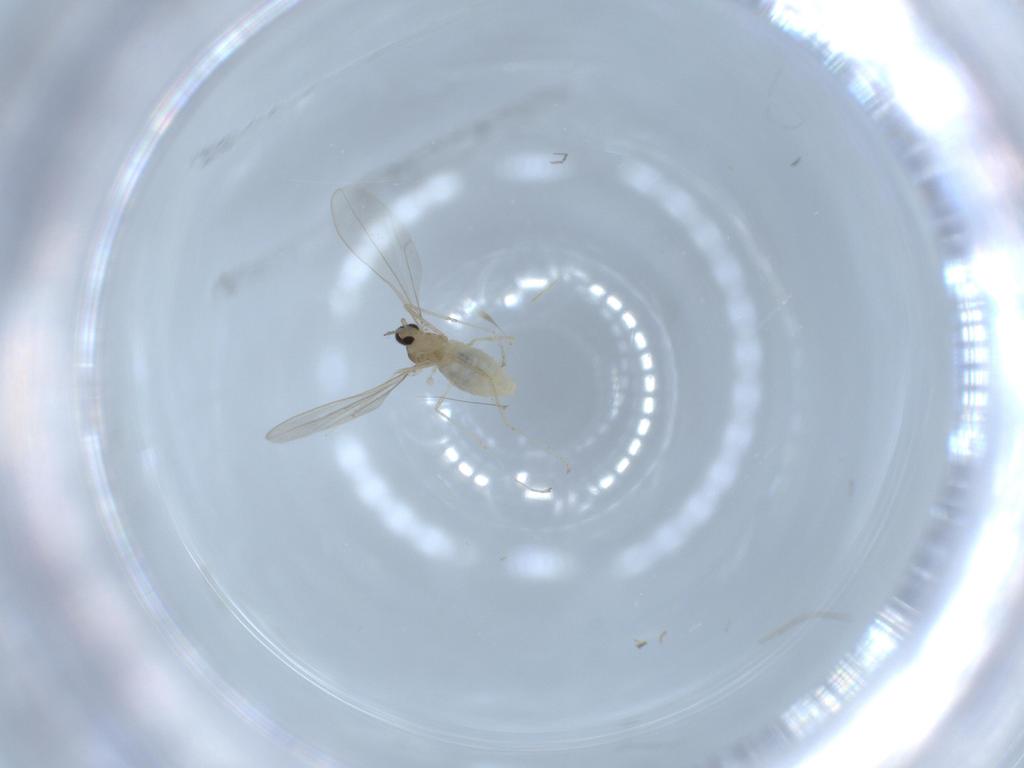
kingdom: Animalia
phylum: Arthropoda
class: Insecta
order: Diptera
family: Cecidomyiidae
